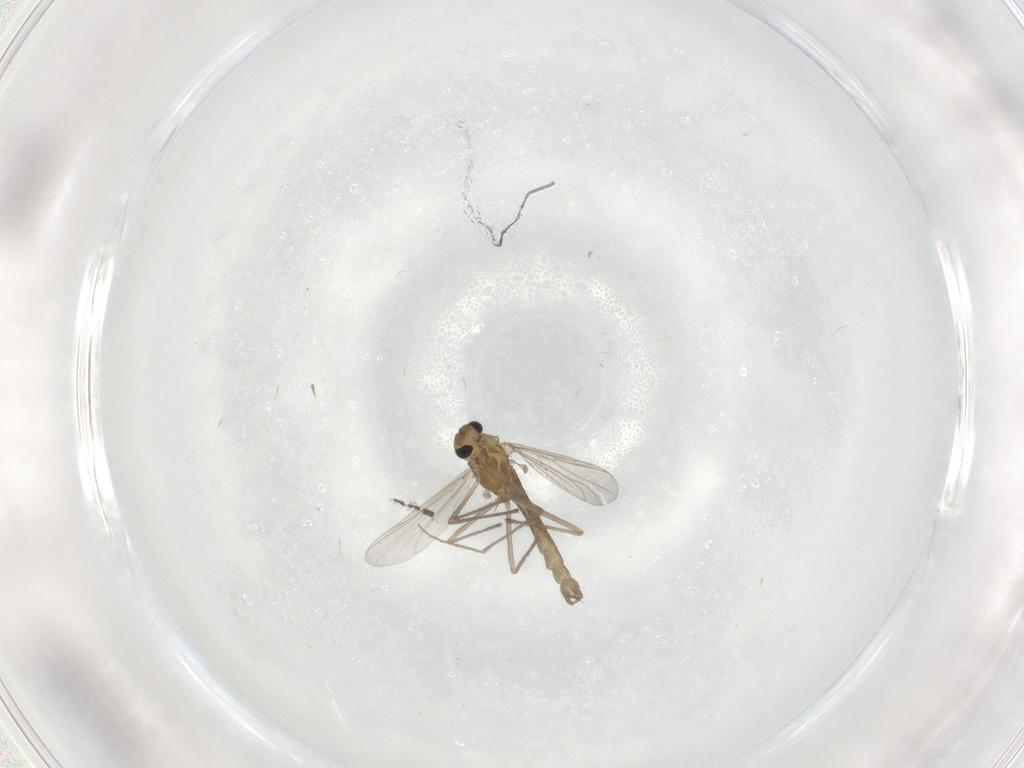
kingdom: Animalia
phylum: Arthropoda
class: Insecta
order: Diptera
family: Chironomidae
